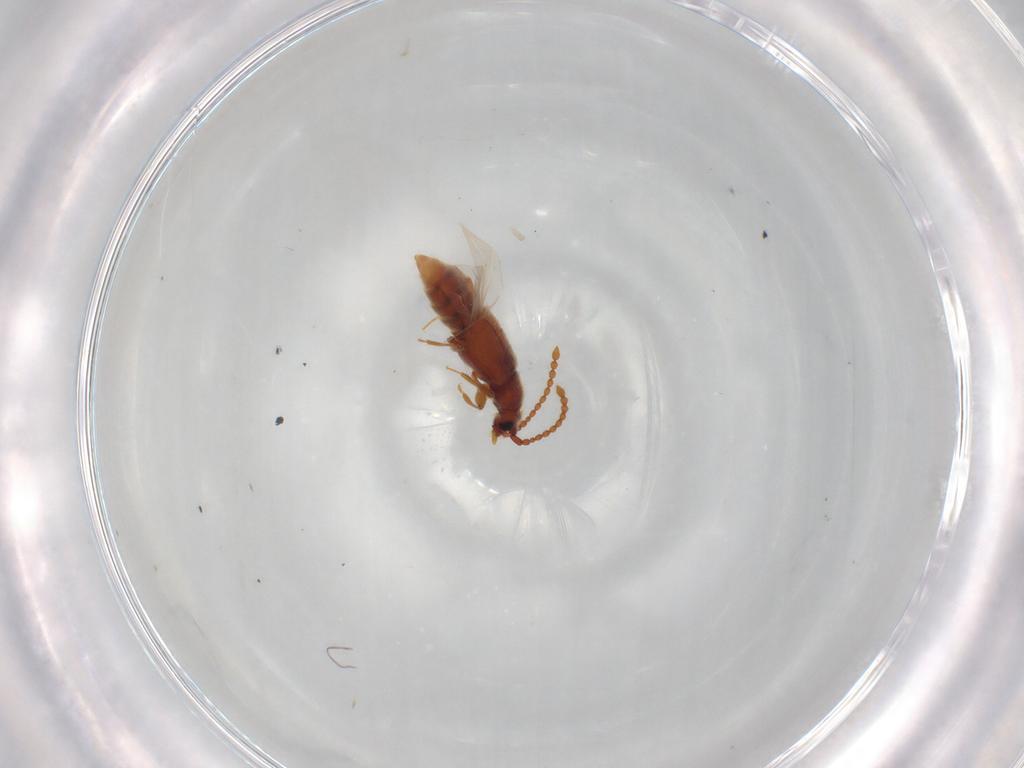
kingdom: Animalia
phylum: Arthropoda
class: Insecta
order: Coleoptera
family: Staphylinidae
